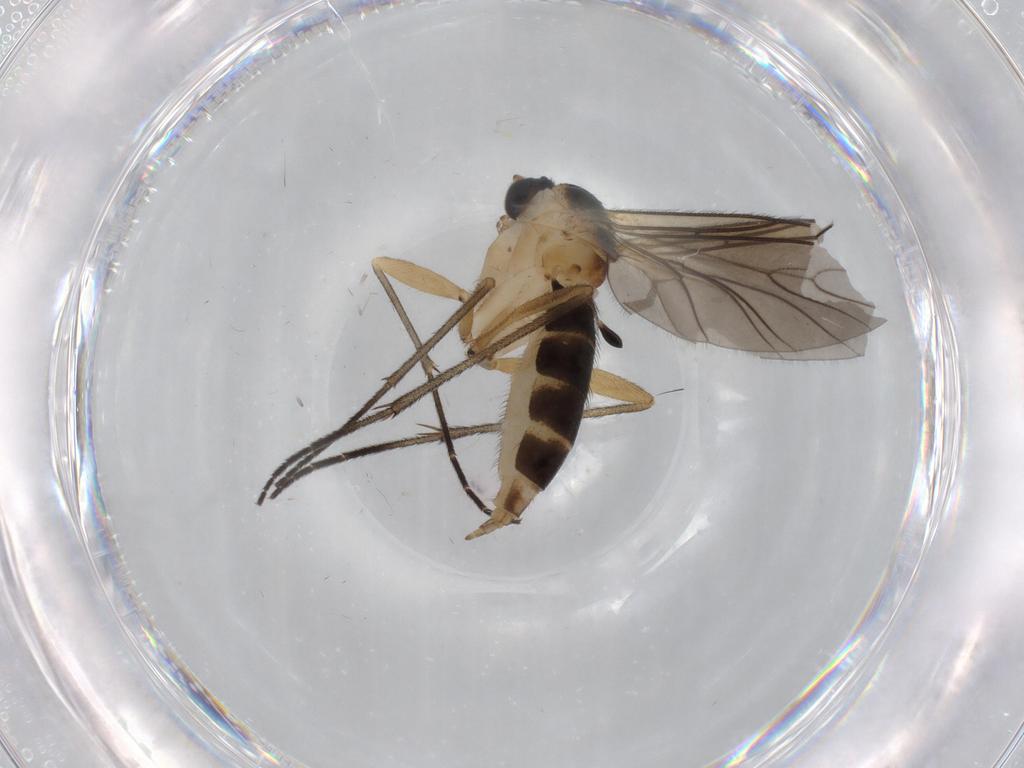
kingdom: Animalia
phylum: Arthropoda
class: Insecta
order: Diptera
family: Sciaridae
